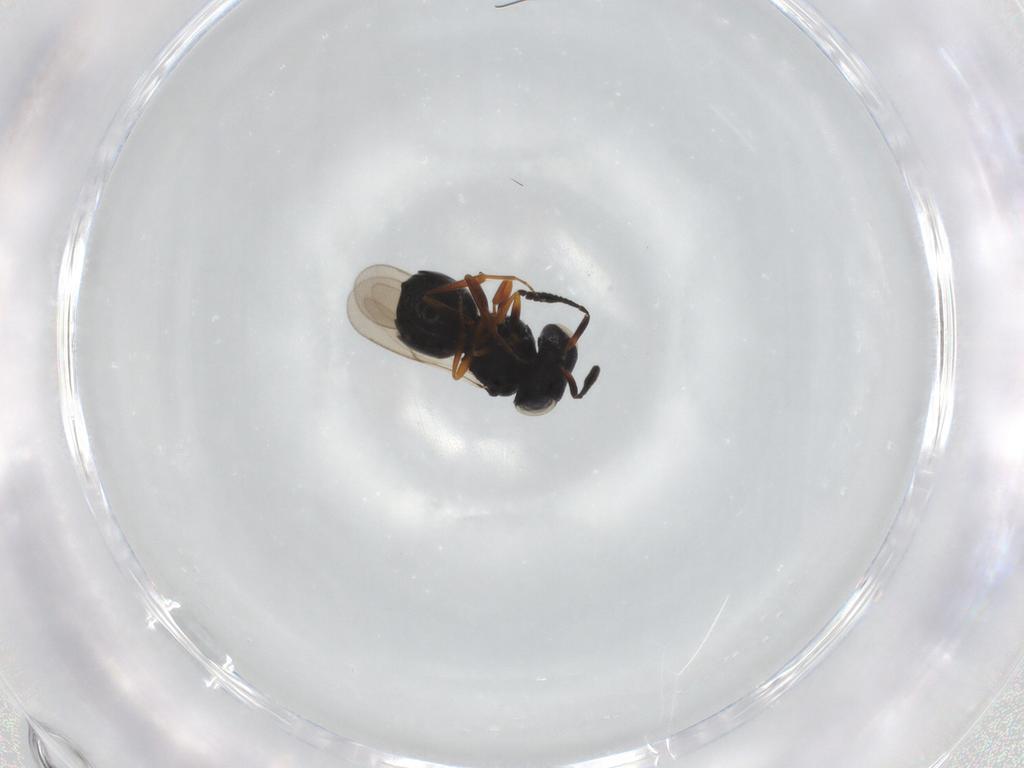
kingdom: Animalia
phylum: Arthropoda
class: Insecta
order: Hymenoptera
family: Scelionidae
